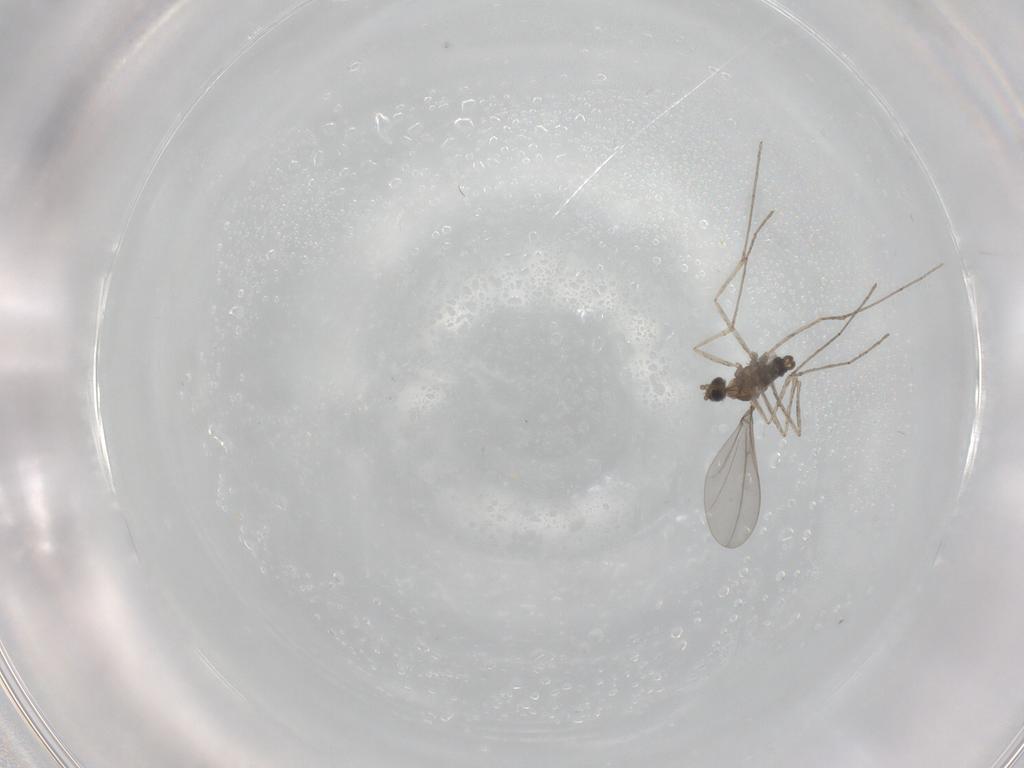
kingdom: Animalia
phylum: Arthropoda
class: Insecta
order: Diptera
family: Cecidomyiidae
